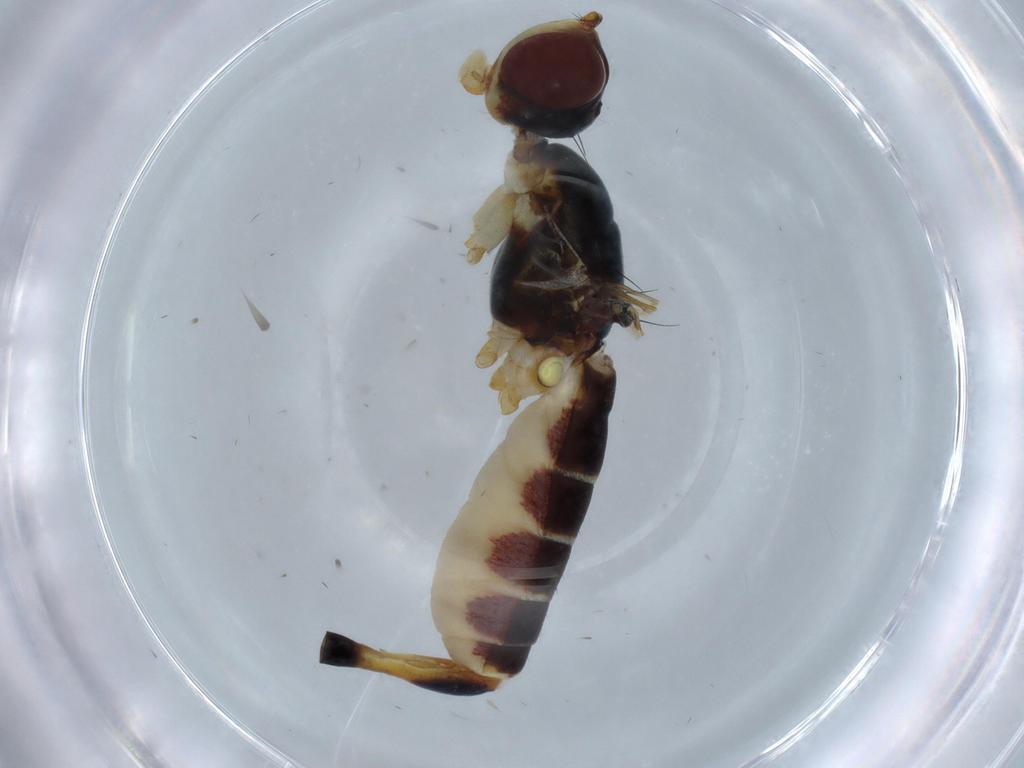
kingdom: Animalia
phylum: Arthropoda
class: Insecta
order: Diptera
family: Micropezidae
